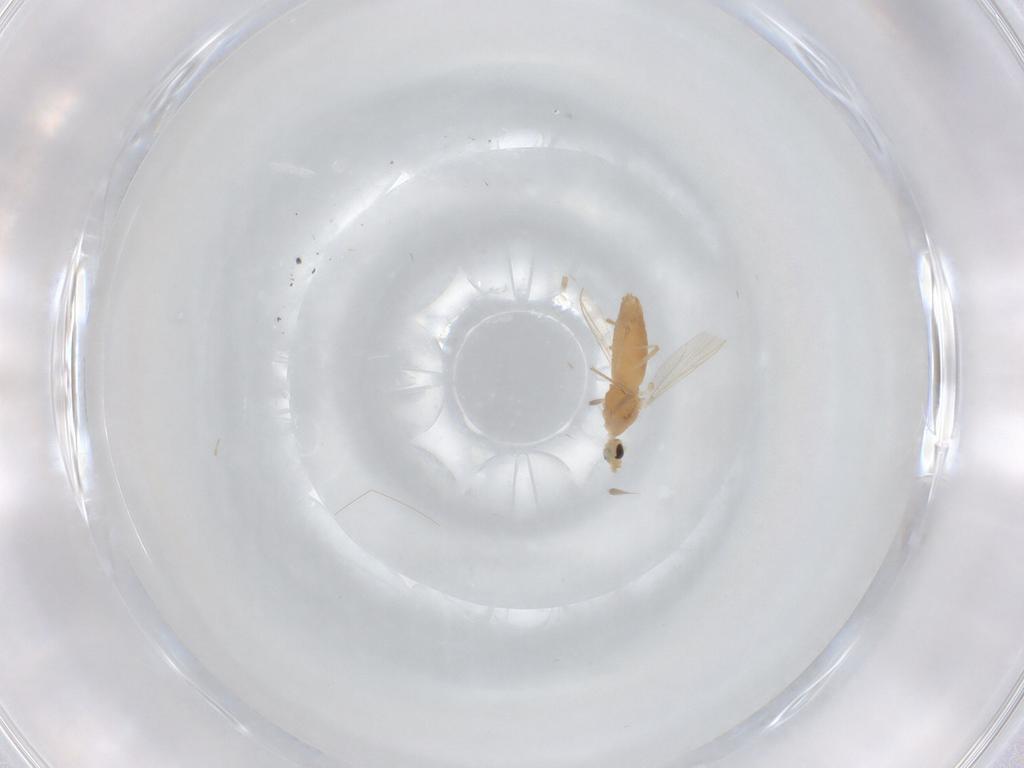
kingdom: Animalia
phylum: Arthropoda
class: Insecta
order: Diptera
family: Chironomidae
